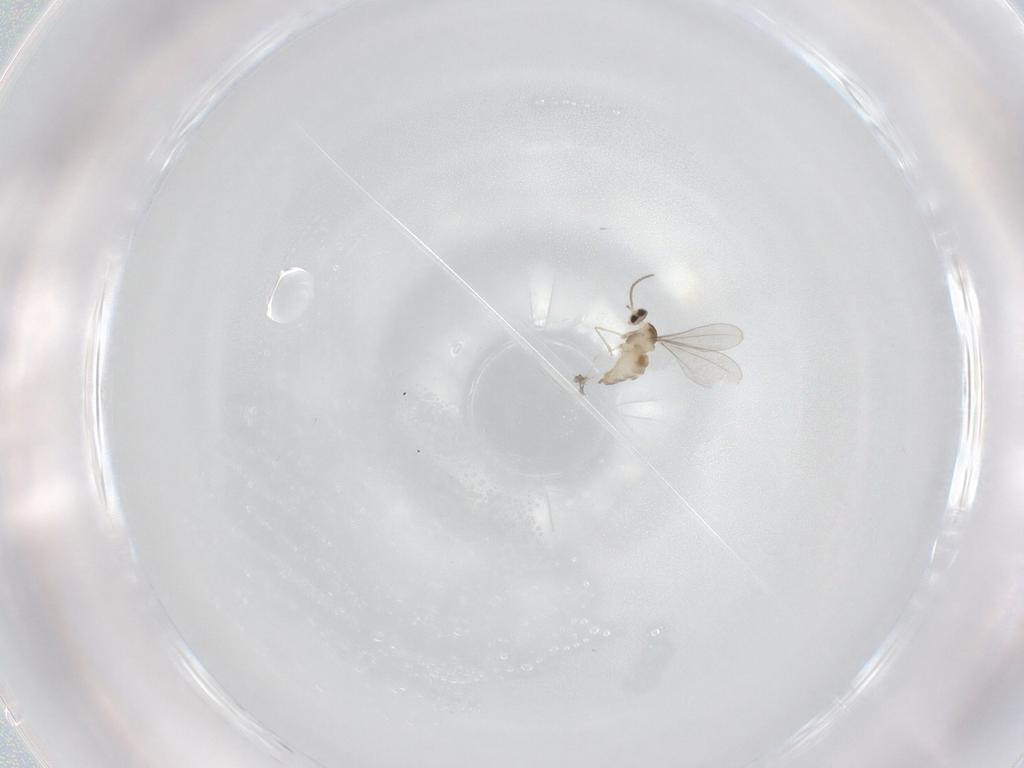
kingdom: Animalia
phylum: Arthropoda
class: Insecta
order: Diptera
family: Cecidomyiidae
